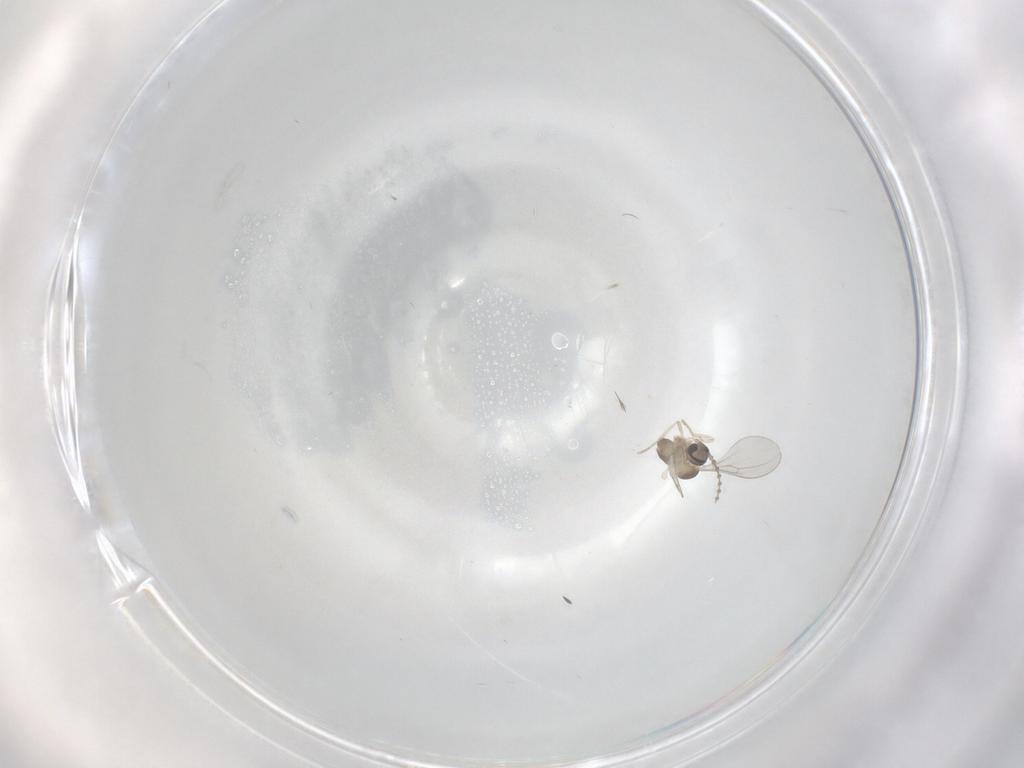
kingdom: Animalia
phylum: Arthropoda
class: Insecta
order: Diptera
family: Cecidomyiidae
